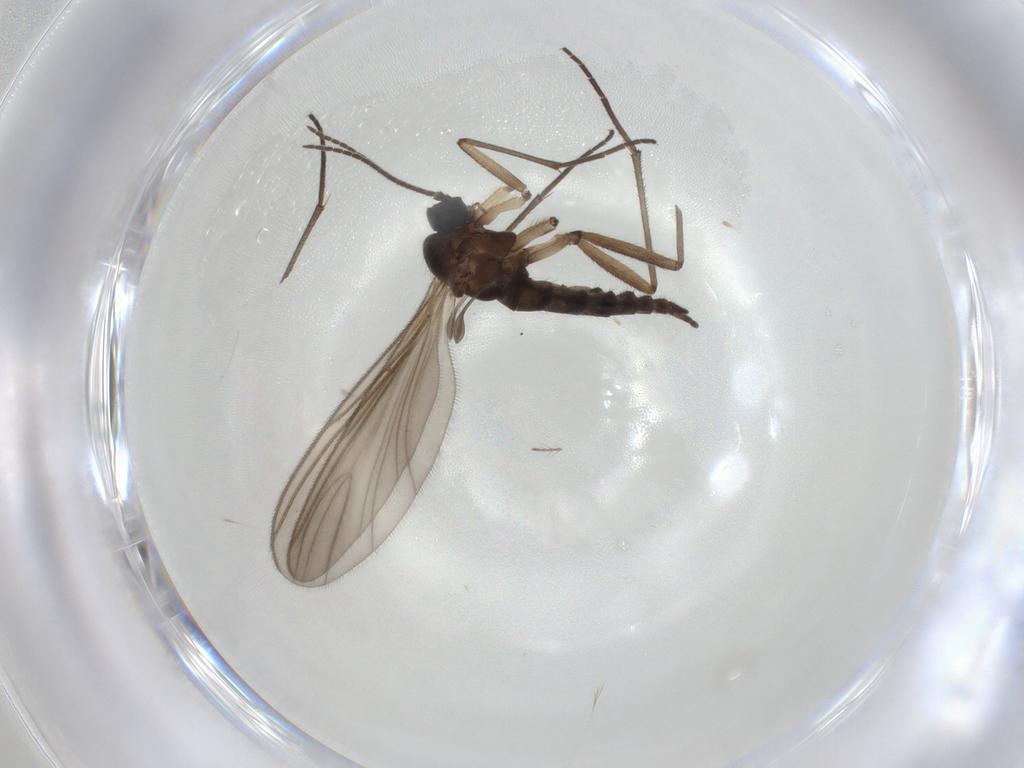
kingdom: Animalia
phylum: Arthropoda
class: Insecta
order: Diptera
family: Sciaridae
